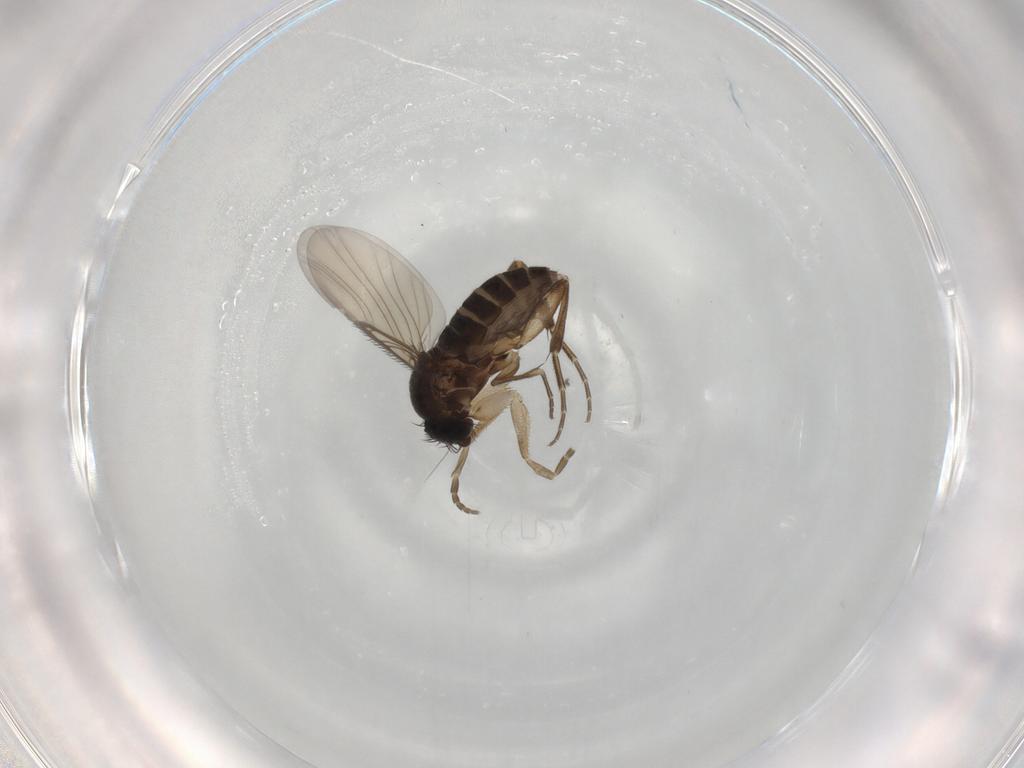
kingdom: Animalia
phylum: Arthropoda
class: Insecta
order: Diptera
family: Phoridae
